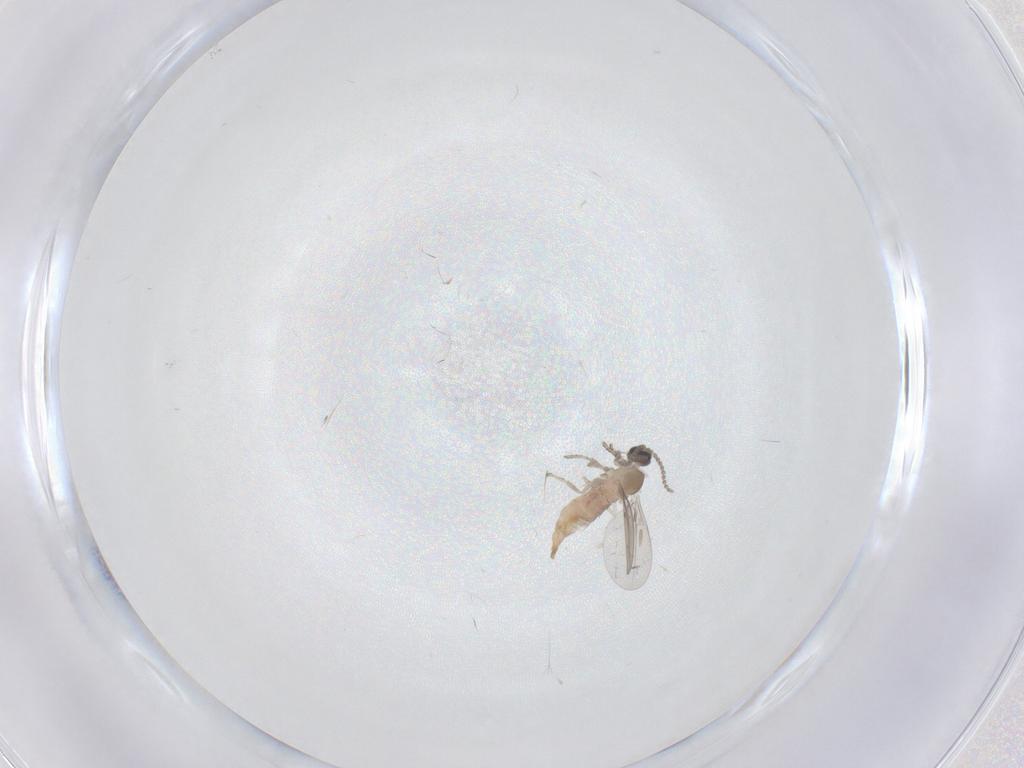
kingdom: Animalia
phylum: Arthropoda
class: Insecta
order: Diptera
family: Cecidomyiidae
